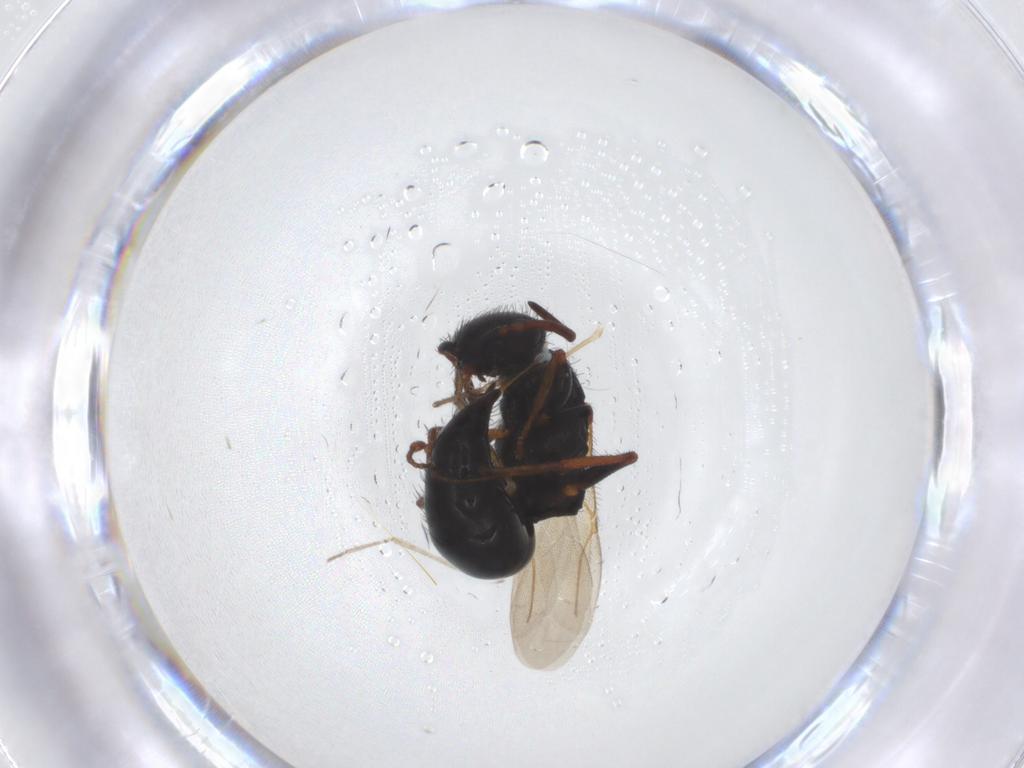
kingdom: Animalia
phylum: Arthropoda
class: Insecta
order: Hymenoptera
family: Bethylidae
